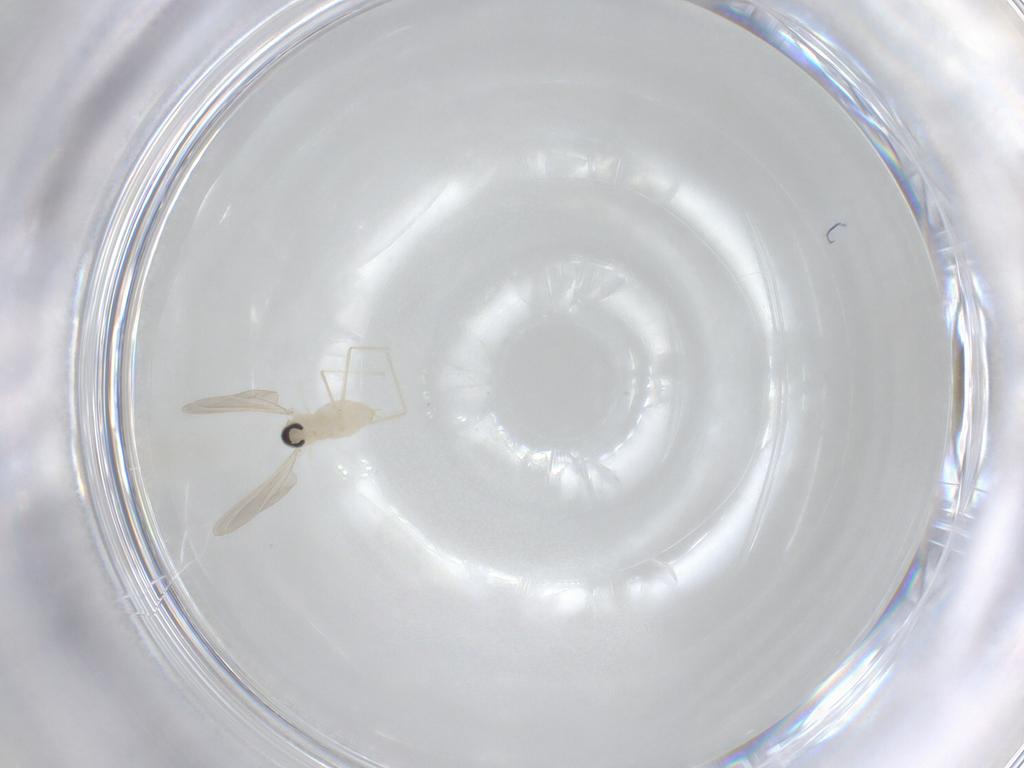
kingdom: Animalia
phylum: Arthropoda
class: Insecta
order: Diptera
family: Cecidomyiidae
